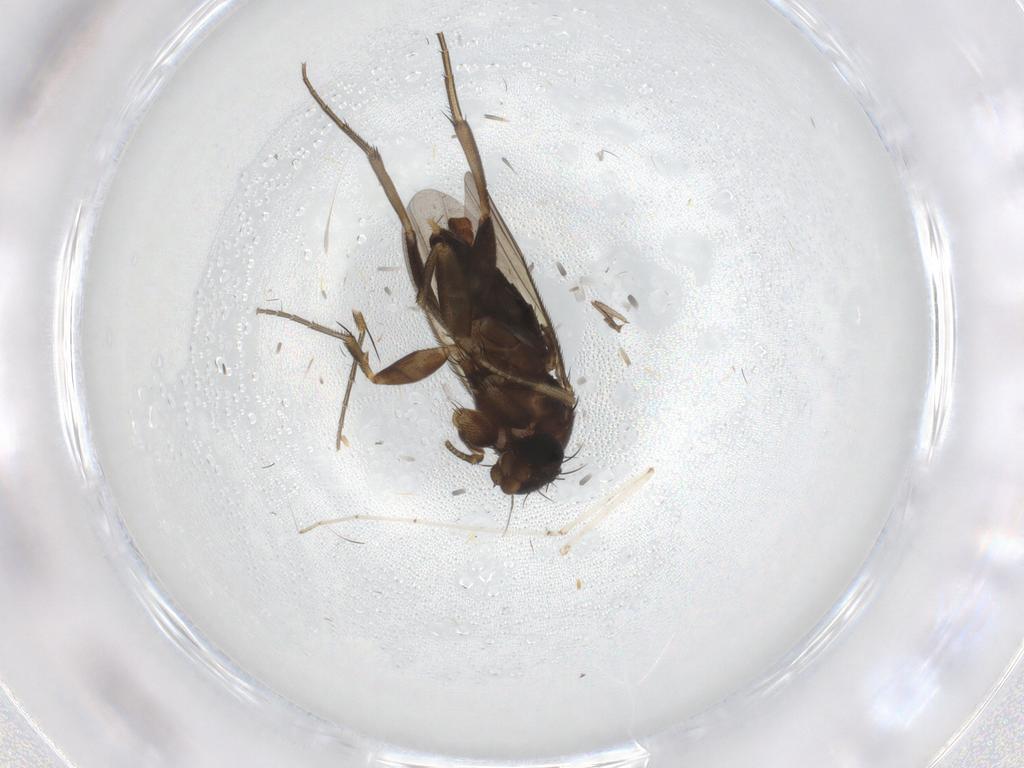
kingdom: Animalia
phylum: Arthropoda
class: Insecta
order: Diptera
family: Phoridae
